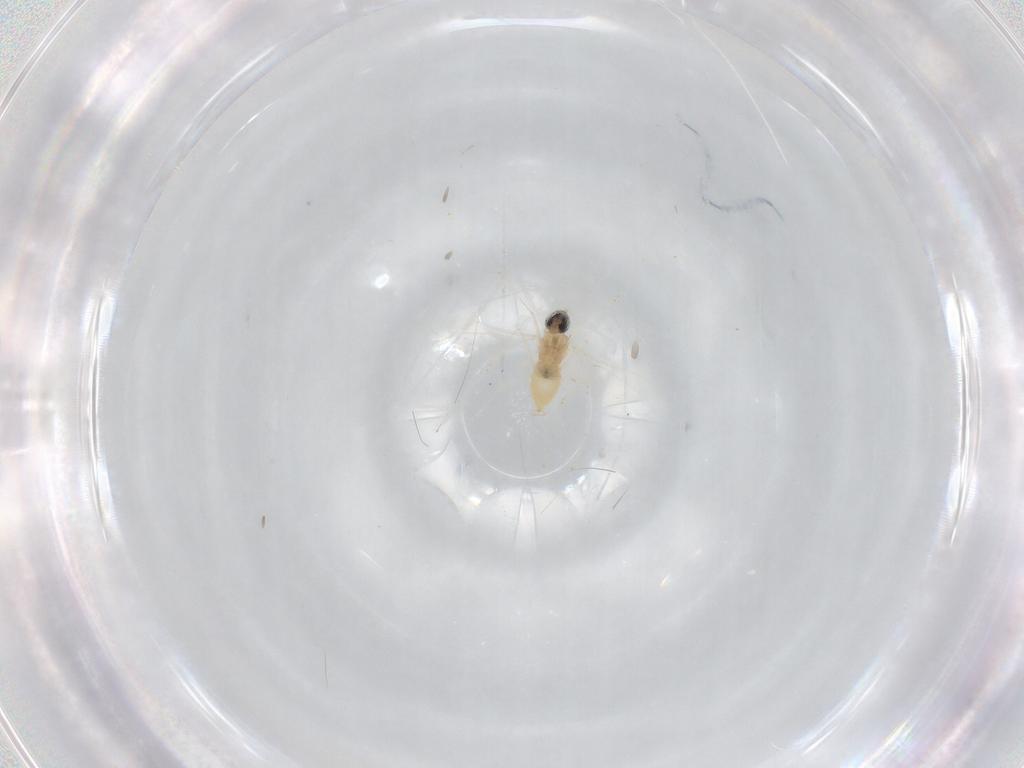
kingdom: Animalia
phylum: Arthropoda
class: Insecta
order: Diptera
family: Cecidomyiidae
